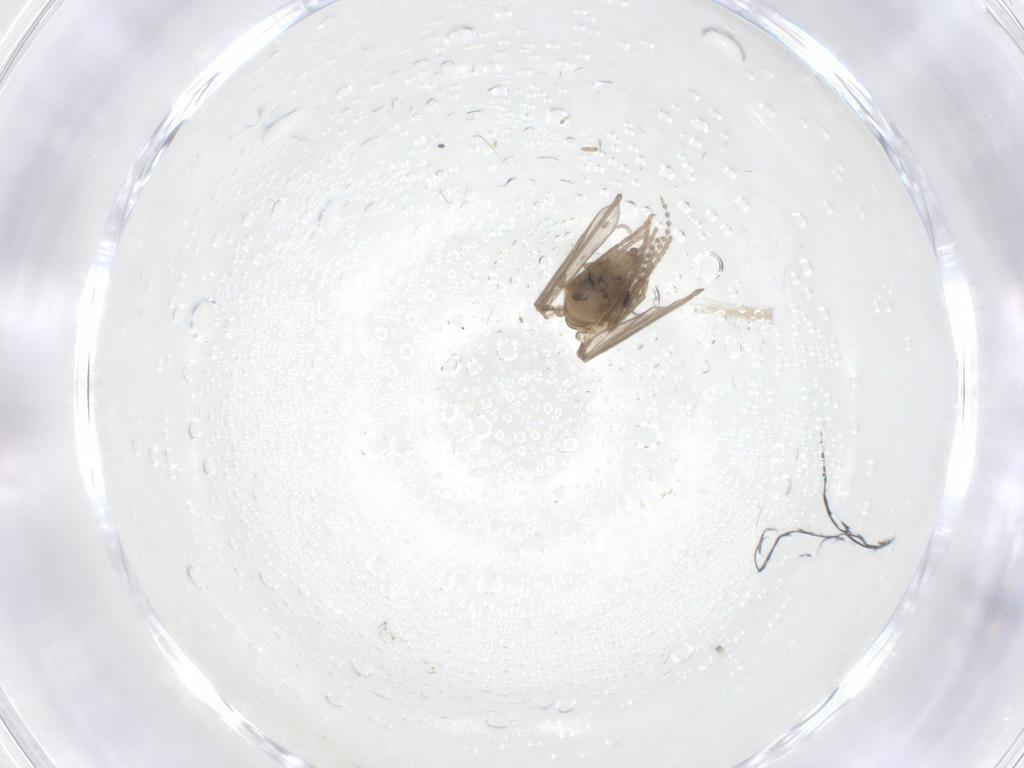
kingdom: Animalia
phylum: Arthropoda
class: Insecta
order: Diptera
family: Psychodidae
